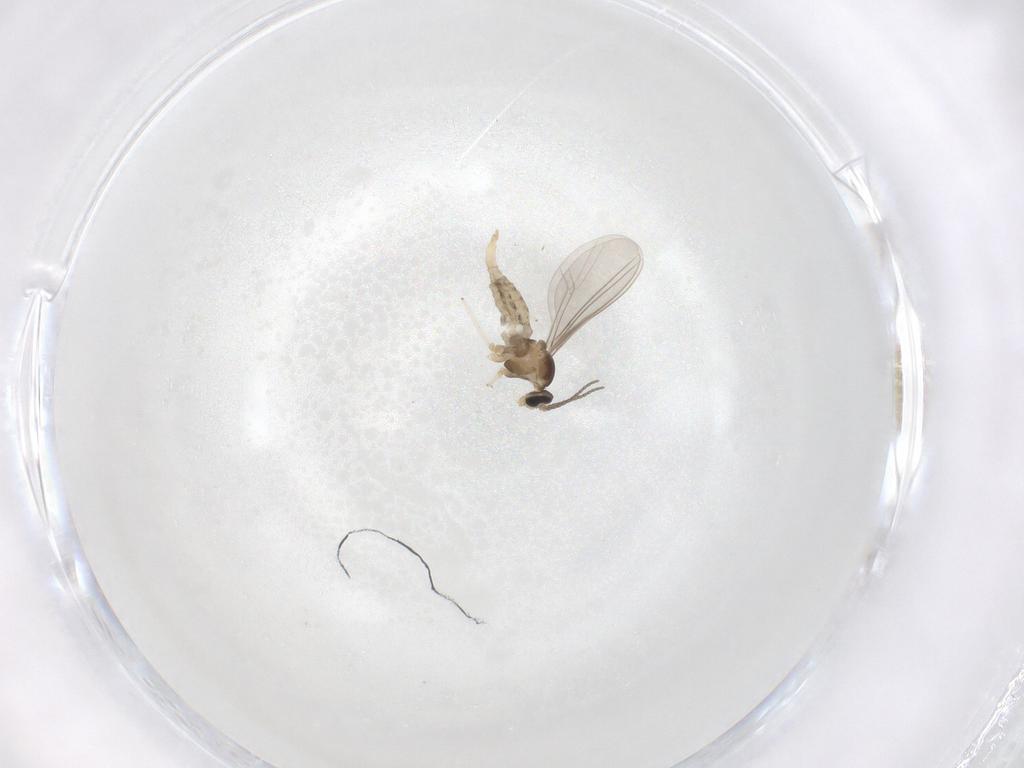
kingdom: Animalia
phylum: Arthropoda
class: Insecta
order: Diptera
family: Cecidomyiidae
